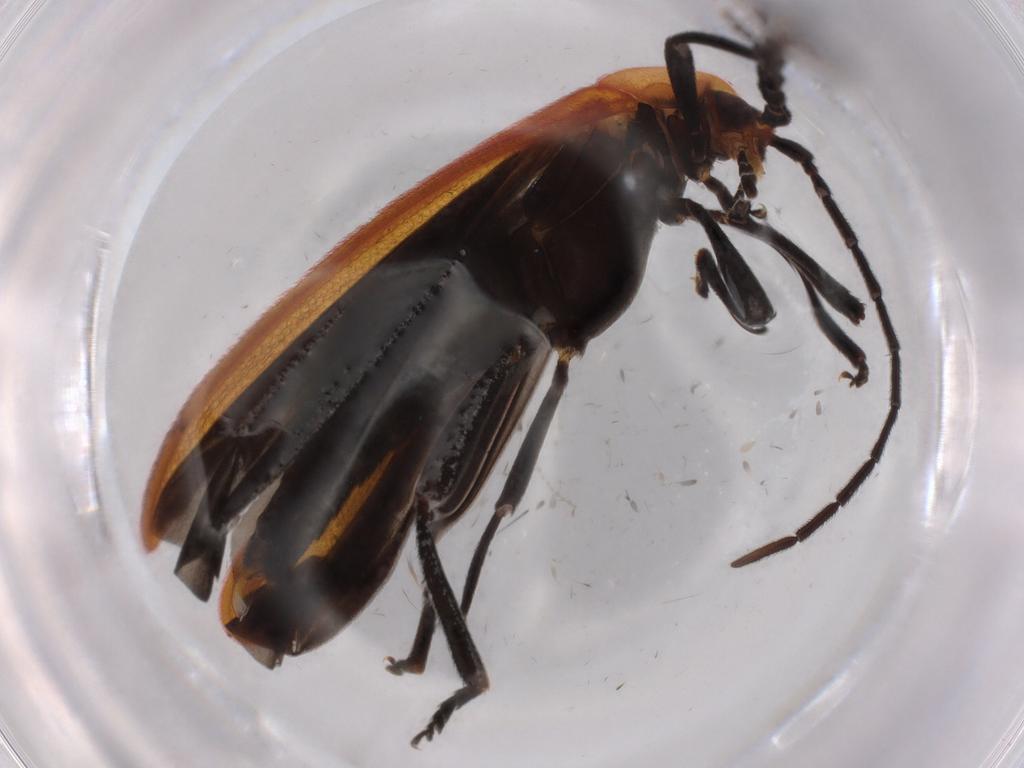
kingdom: Animalia
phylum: Arthropoda
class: Insecta
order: Coleoptera
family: Lycidae
